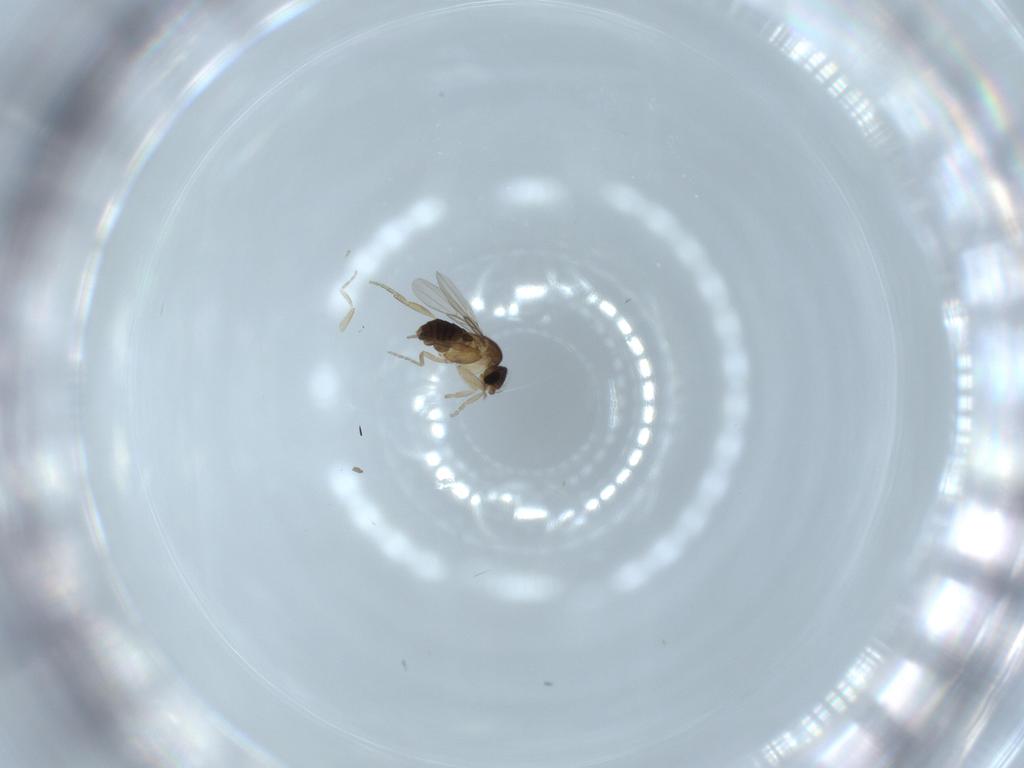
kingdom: Animalia
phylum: Arthropoda
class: Insecta
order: Diptera
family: Phoridae
